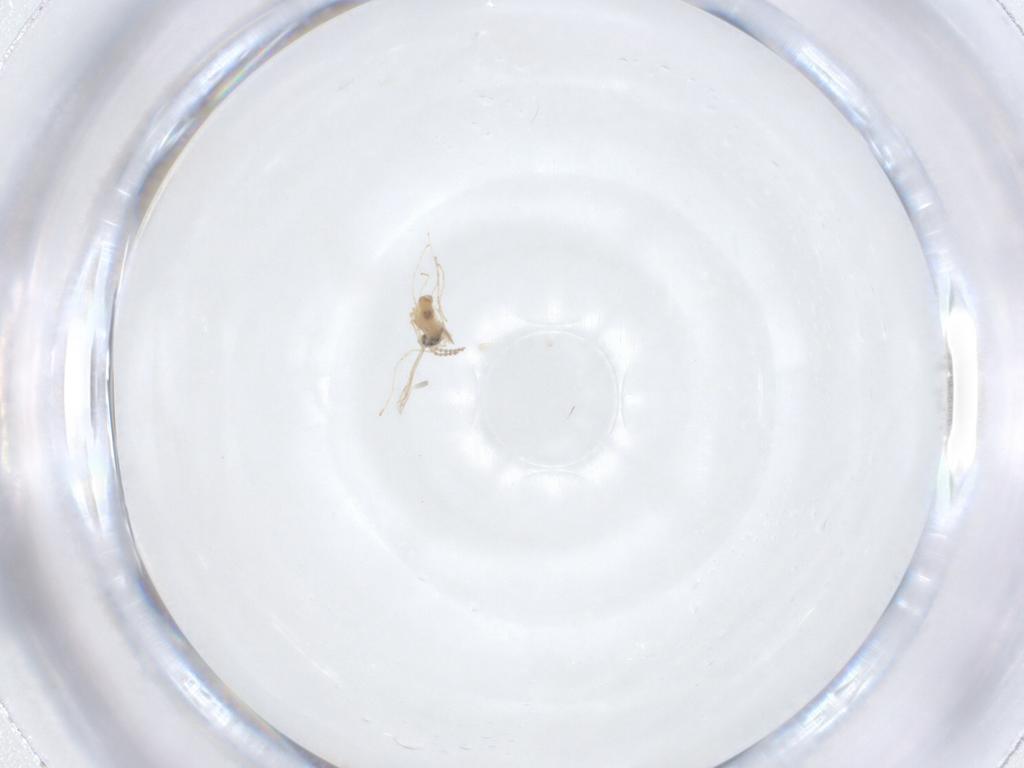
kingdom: Animalia
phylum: Arthropoda
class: Insecta
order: Diptera
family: Cecidomyiidae
